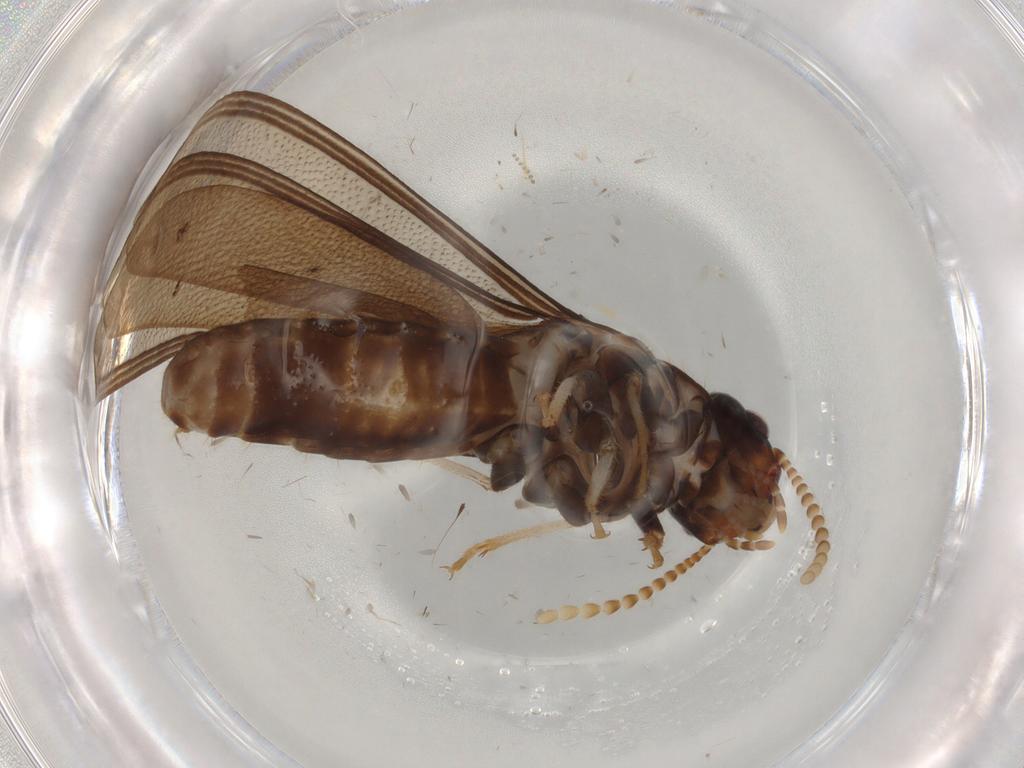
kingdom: Animalia
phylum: Arthropoda
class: Insecta
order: Blattodea
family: Kalotermitidae
